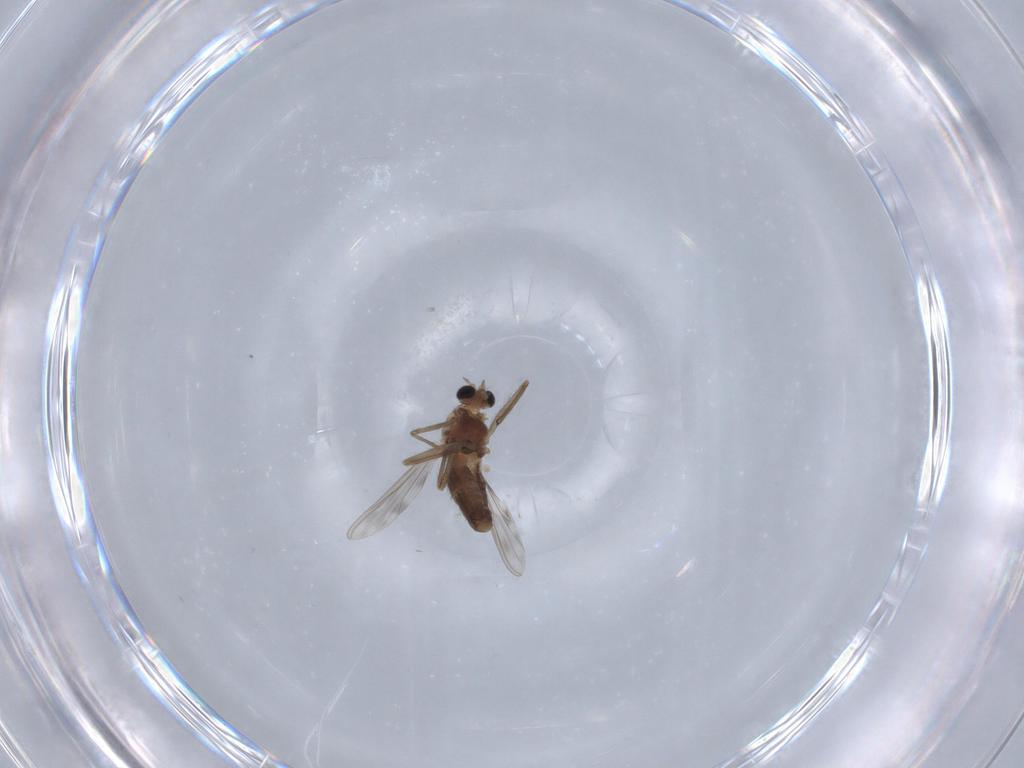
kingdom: Animalia
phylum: Arthropoda
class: Insecta
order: Diptera
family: Chironomidae
